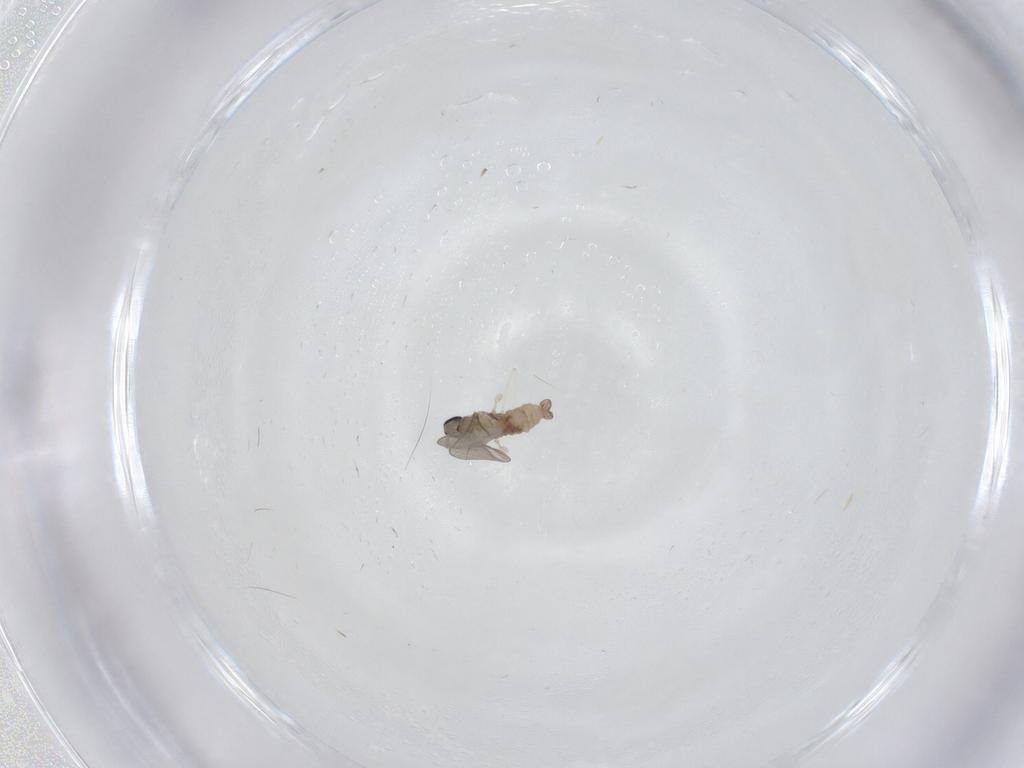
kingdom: Animalia
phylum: Arthropoda
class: Insecta
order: Diptera
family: Cecidomyiidae
